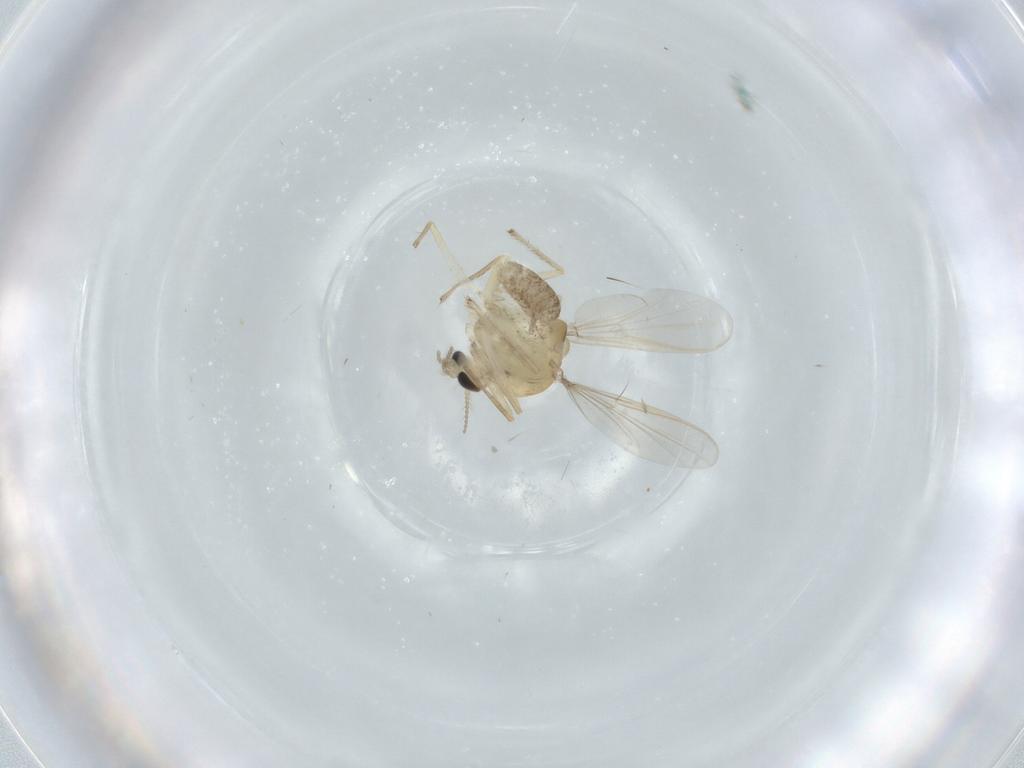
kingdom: Animalia
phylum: Arthropoda
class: Insecta
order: Diptera
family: Chironomidae
